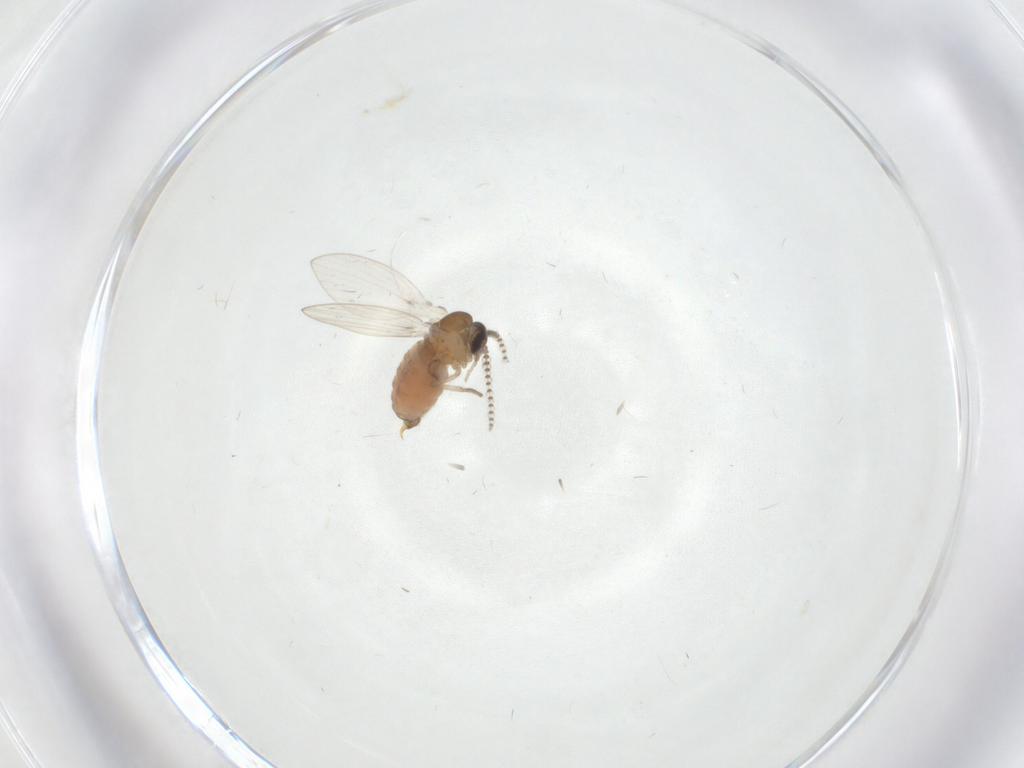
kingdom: Animalia
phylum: Arthropoda
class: Insecta
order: Diptera
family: Psychodidae
